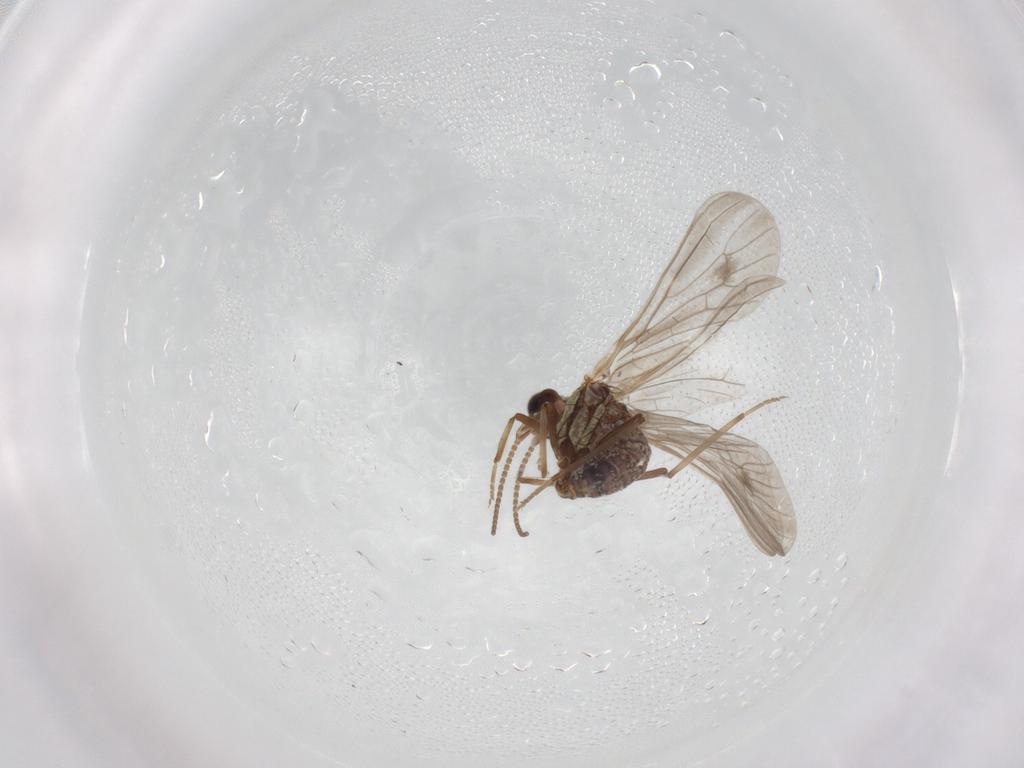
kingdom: Animalia
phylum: Arthropoda
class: Insecta
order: Neuroptera
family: Coniopterygidae
